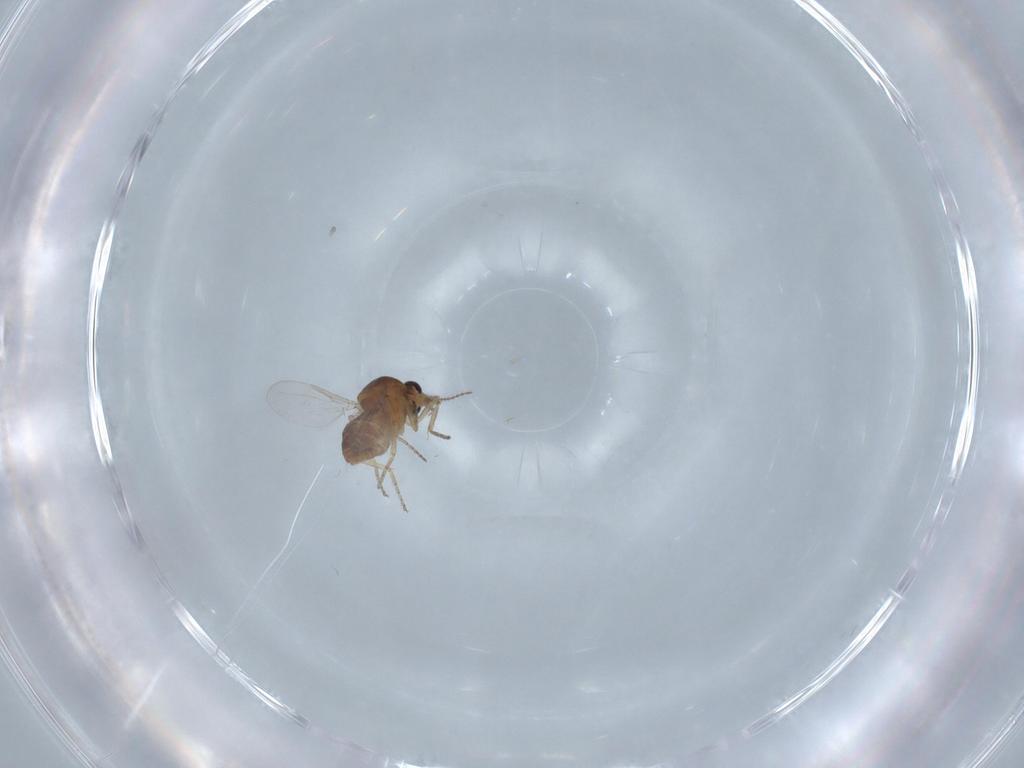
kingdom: Animalia
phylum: Arthropoda
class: Insecta
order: Diptera
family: Ceratopogonidae
